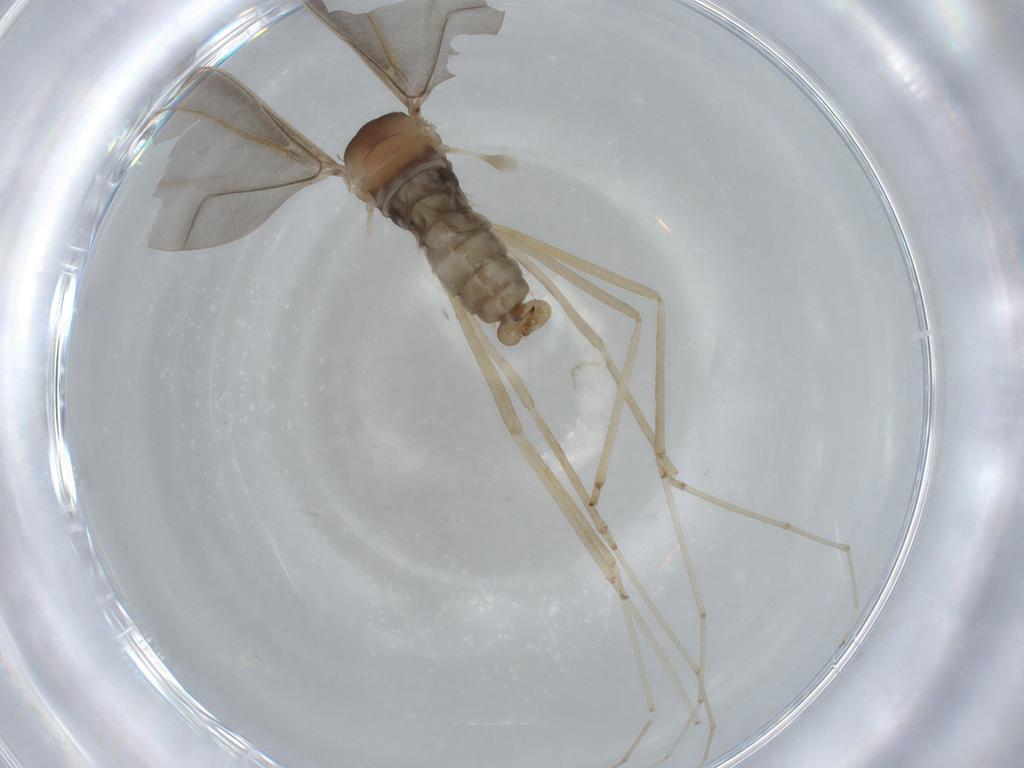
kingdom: Animalia
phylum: Arthropoda
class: Insecta
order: Diptera
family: Cecidomyiidae
